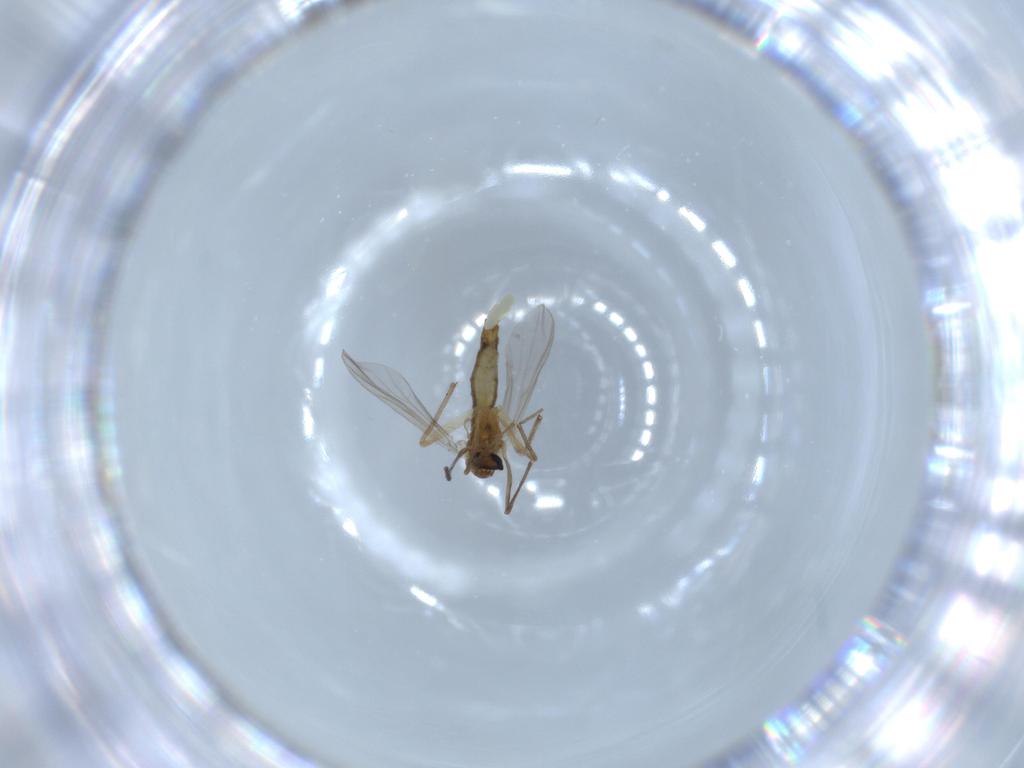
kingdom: Animalia
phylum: Arthropoda
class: Insecta
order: Diptera
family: Chironomidae
